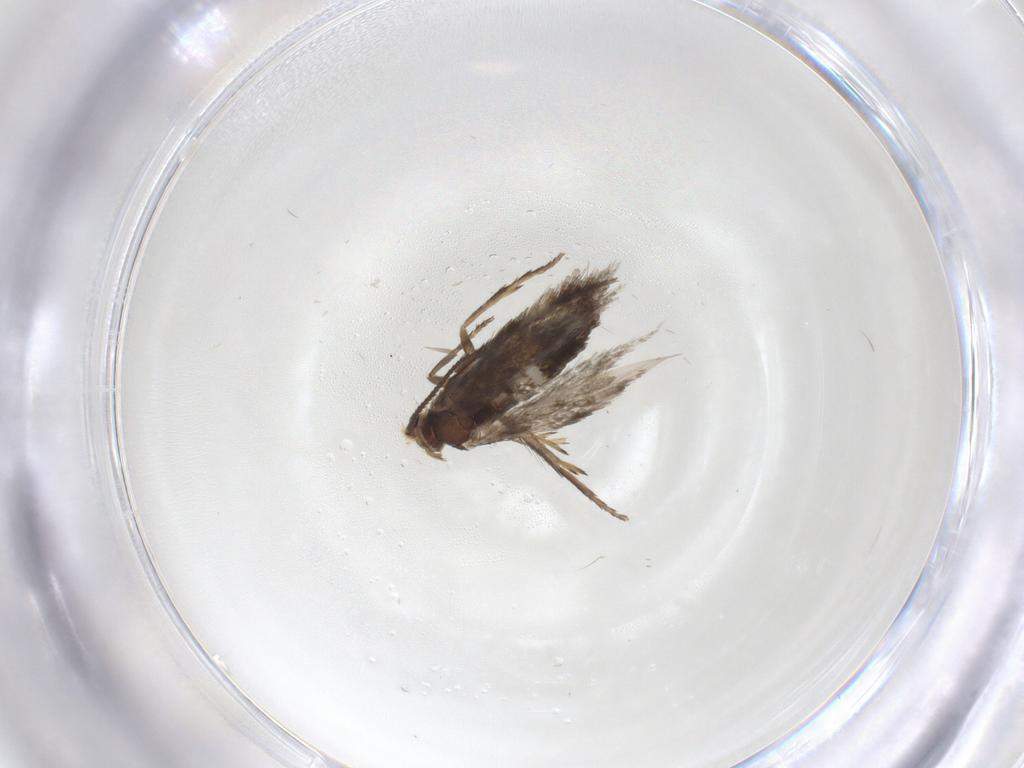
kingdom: Animalia
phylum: Arthropoda
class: Insecta
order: Lepidoptera
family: Nepticulidae
